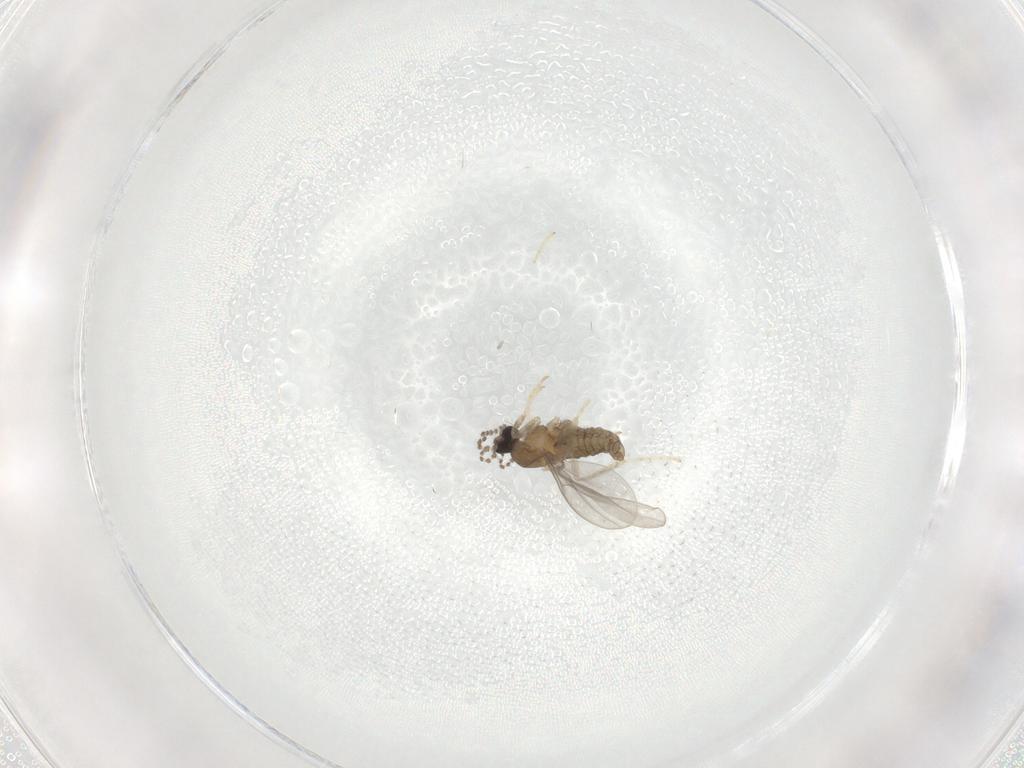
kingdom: Animalia
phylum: Arthropoda
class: Insecta
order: Diptera
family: Cecidomyiidae
